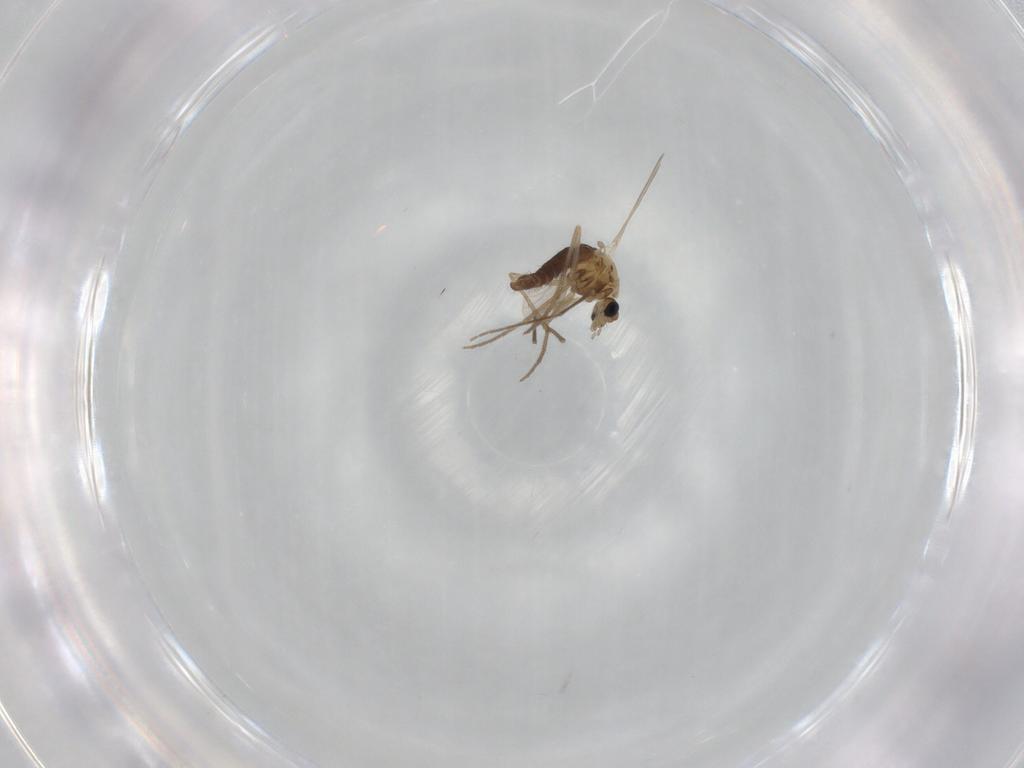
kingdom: Animalia
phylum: Arthropoda
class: Insecta
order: Diptera
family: Chironomidae
